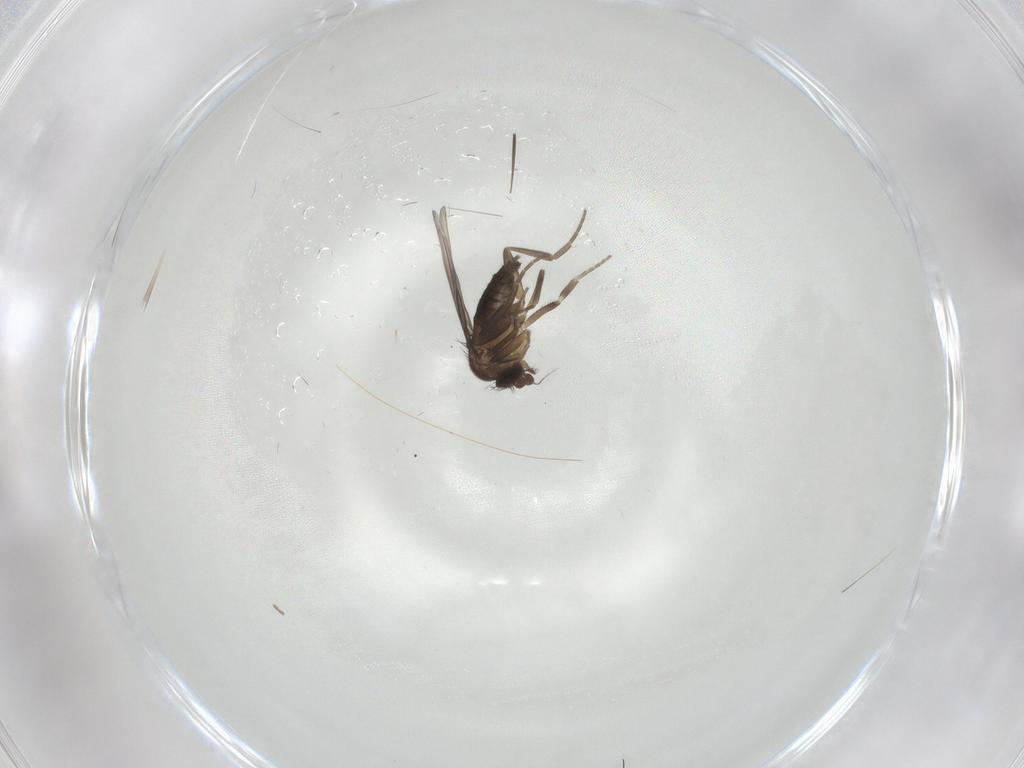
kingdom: Animalia
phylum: Arthropoda
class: Insecta
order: Diptera
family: Phoridae
